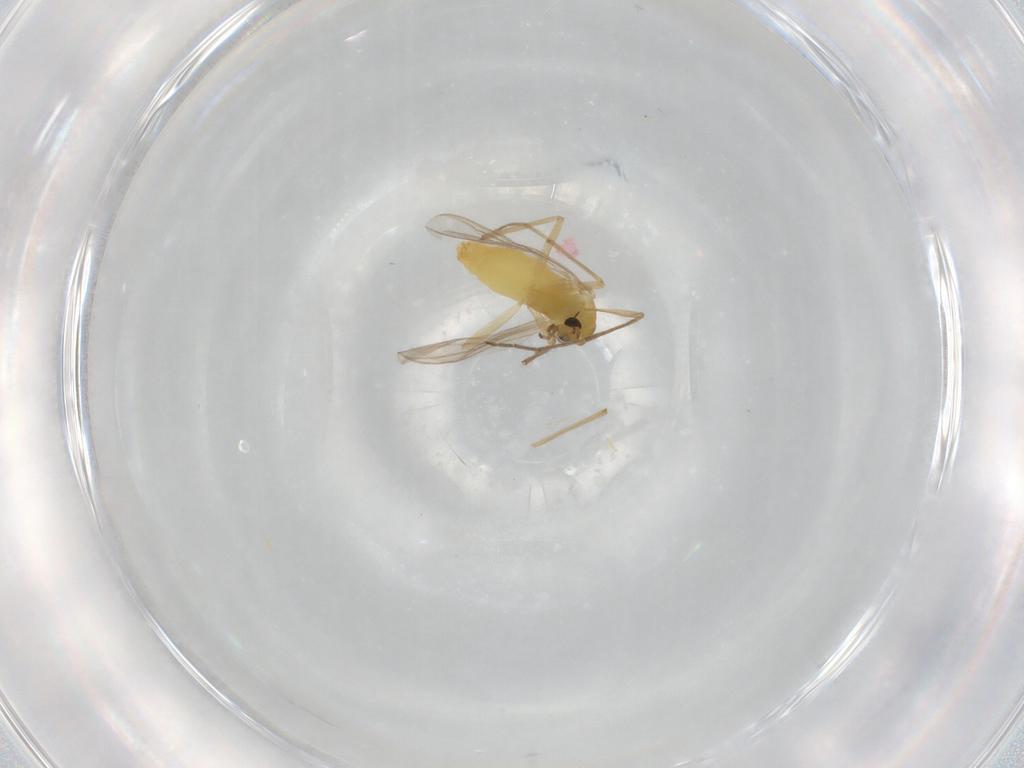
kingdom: Animalia
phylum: Arthropoda
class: Insecta
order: Diptera
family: Chironomidae
